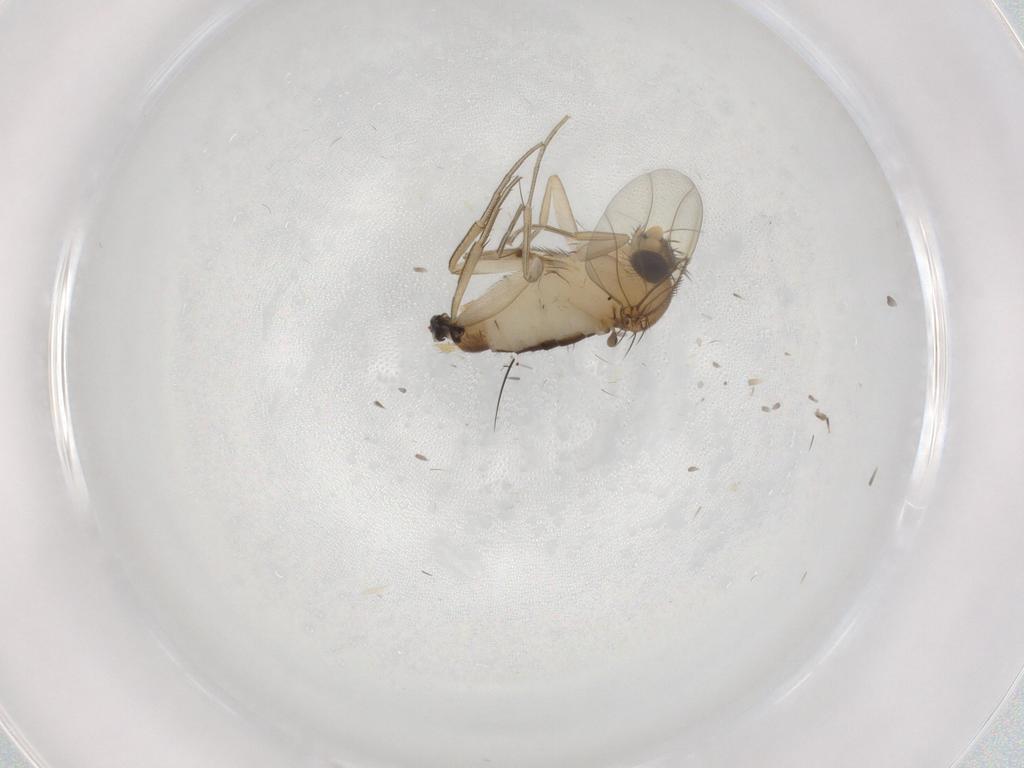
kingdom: Animalia
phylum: Arthropoda
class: Insecta
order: Diptera
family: Phoridae
